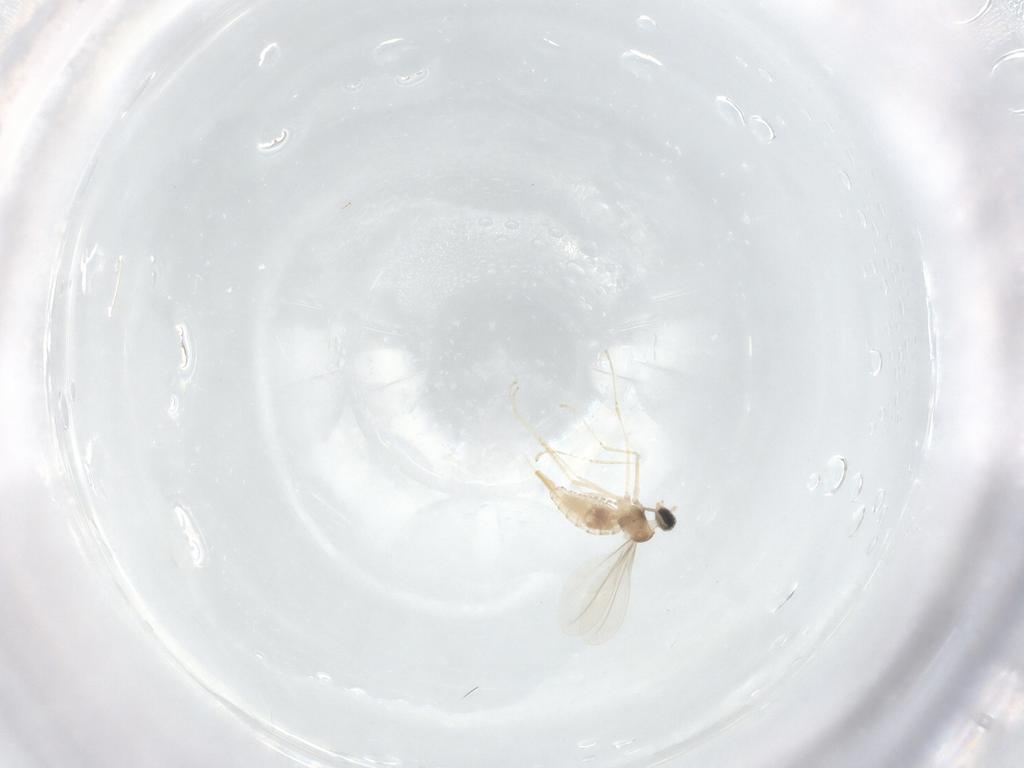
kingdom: Animalia
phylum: Arthropoda
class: Insecta
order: Diptera
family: Cecidomyiidae
